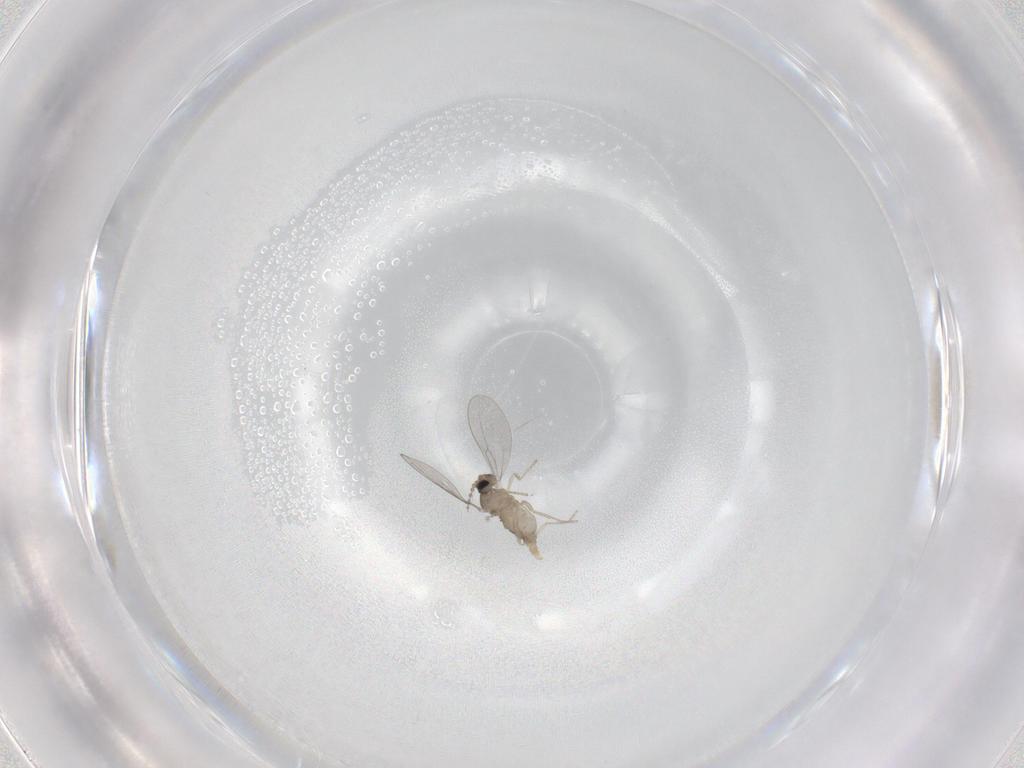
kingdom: Animalia
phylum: Arthropoda
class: Insecta
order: Diptera
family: Cecidomyiidae
